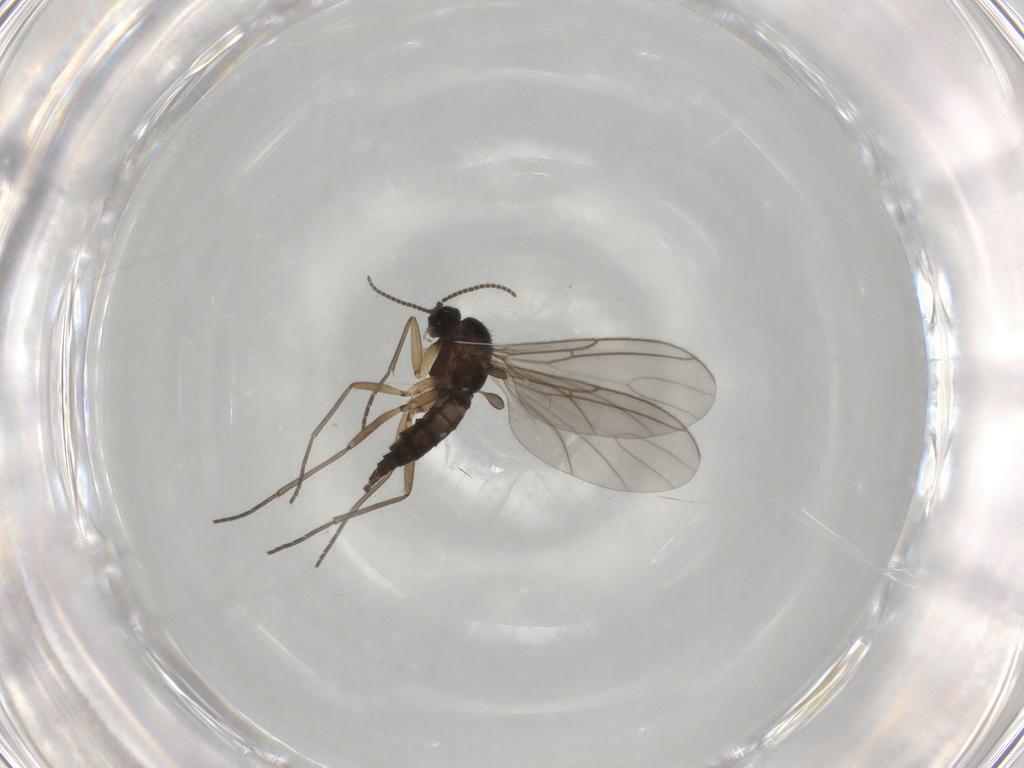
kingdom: Animalia
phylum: Arthropoda
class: Insecta
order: Diptera
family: Sciaridae
